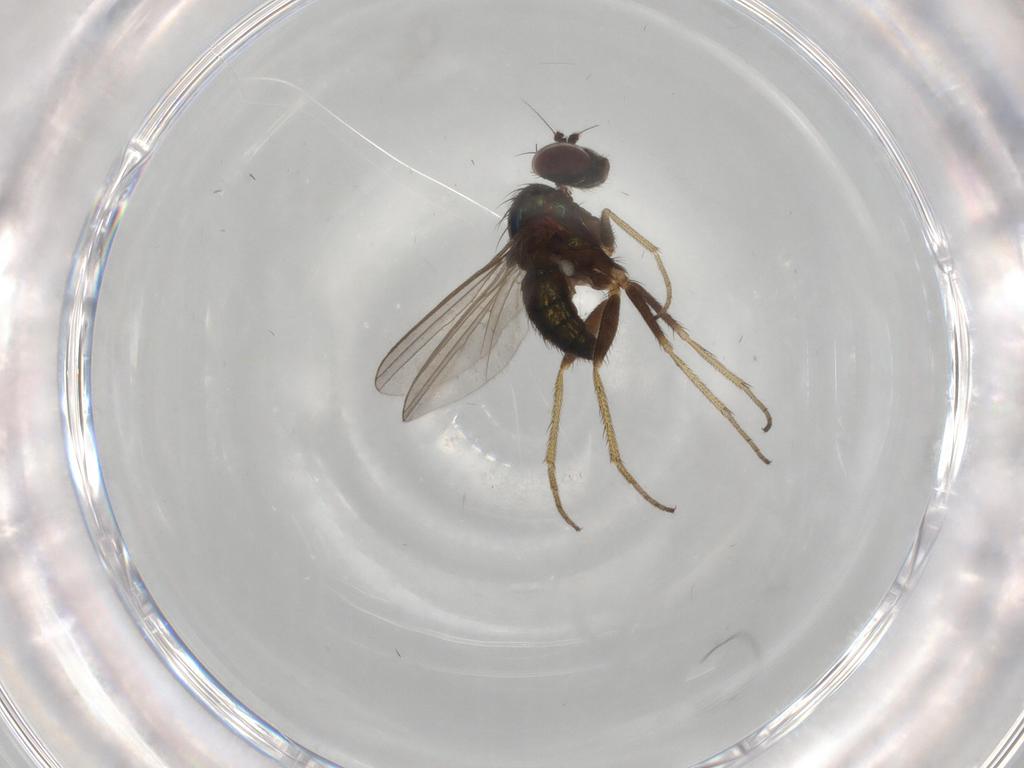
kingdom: Animalia
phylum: Arthropoda
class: Insecta
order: Diptera
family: Dolichopodidae
